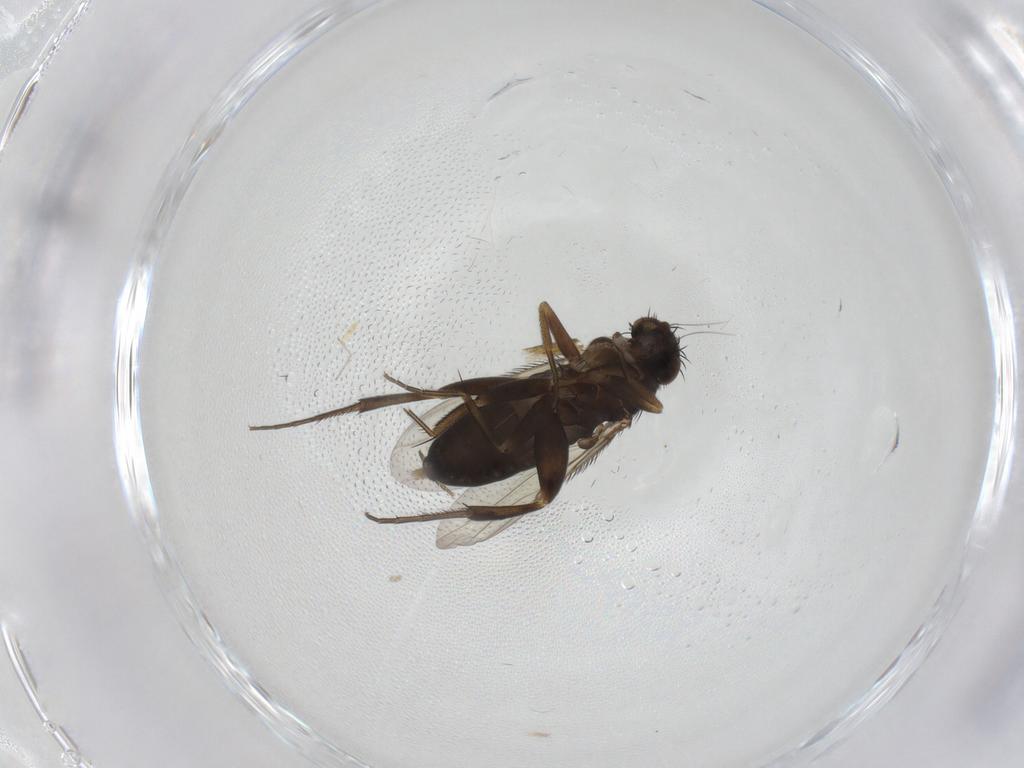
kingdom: Animalia
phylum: Arthropoda
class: Insecta
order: Diptera
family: Phoridae
